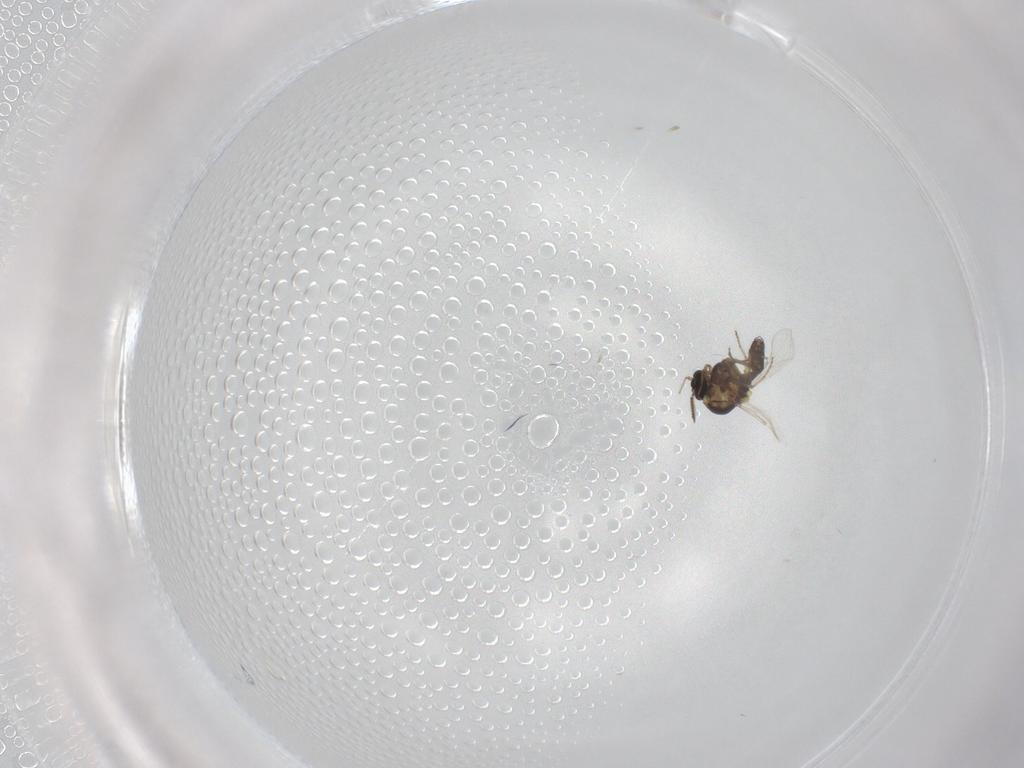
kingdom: Animalia
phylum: Arthropoda
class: Insecta
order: Diptera
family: Ceratopogonidae
